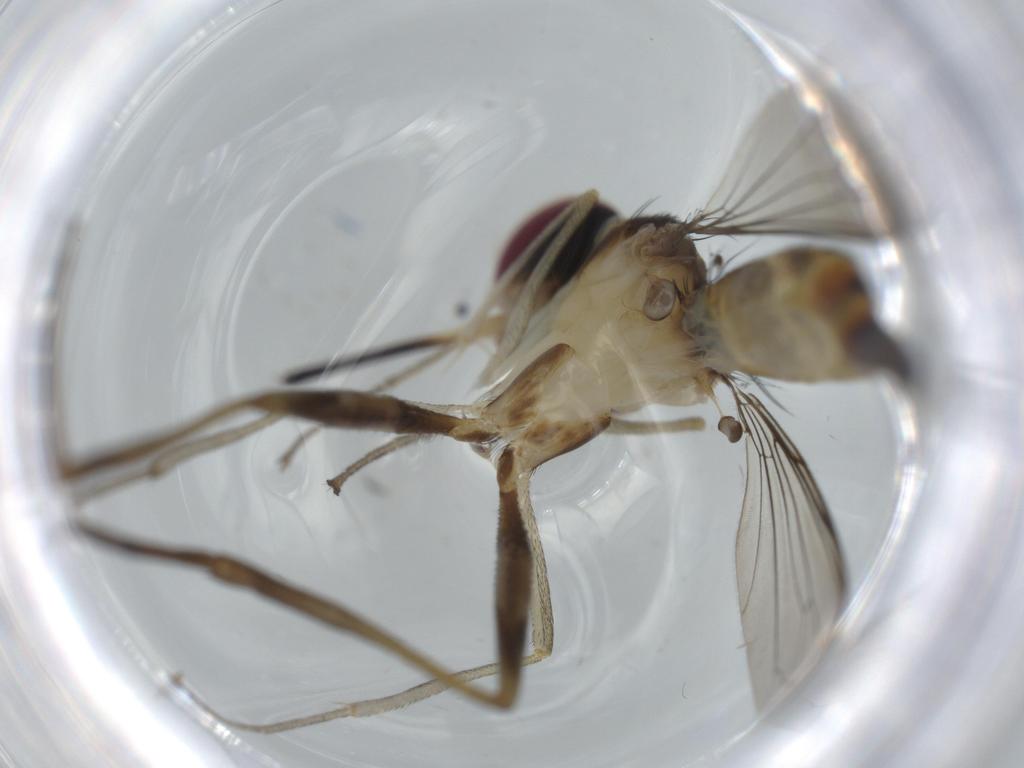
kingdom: Animalia
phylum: Arthropoda
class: Insecta
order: Diptera
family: Conopidae
